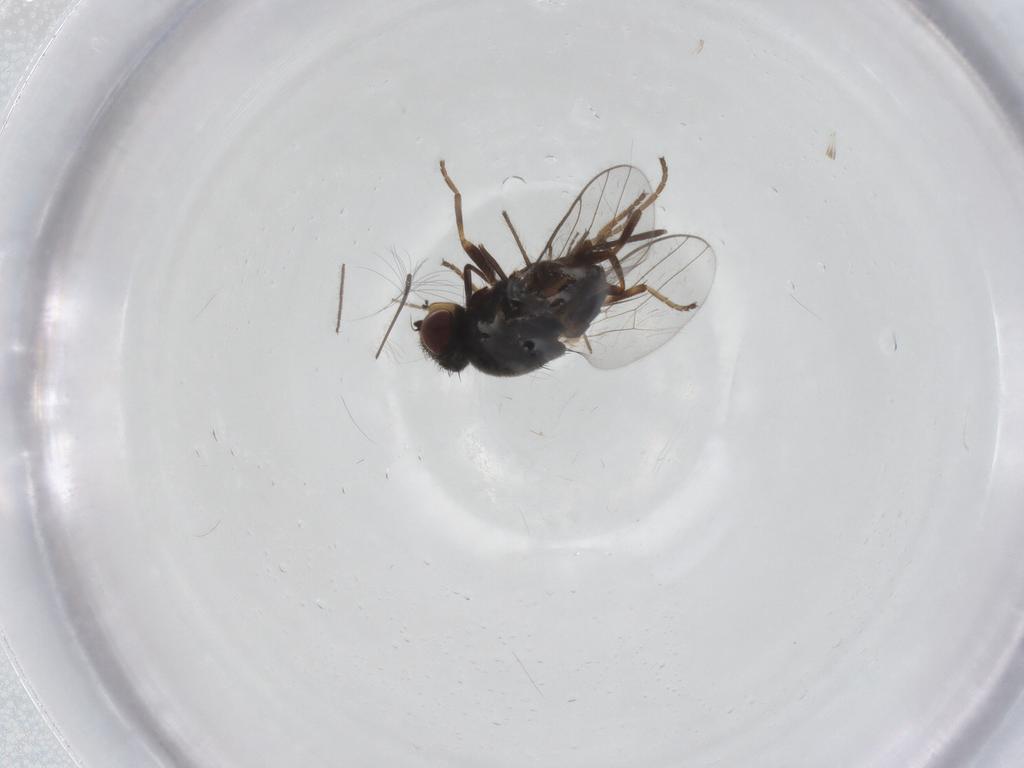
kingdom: Animalia
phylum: Arthropoda
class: Insecta
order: Diptera
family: Chloropidae
